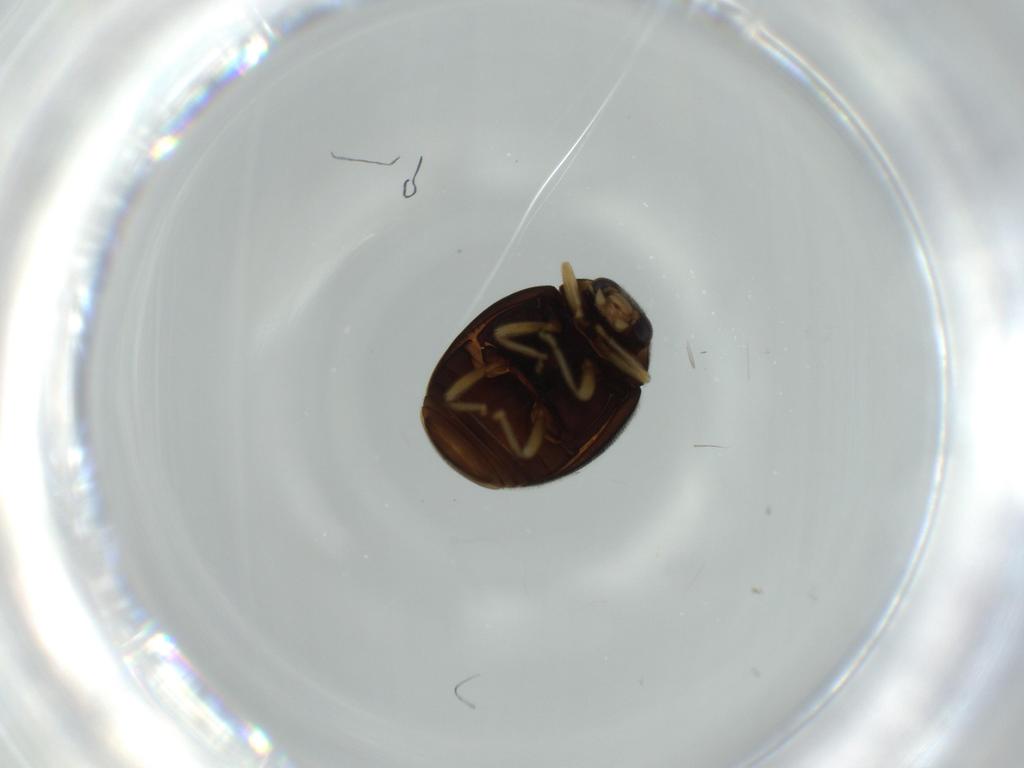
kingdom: Animalia
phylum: Arthropoda
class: Insecta
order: Coleoptera
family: Coccinellidae
